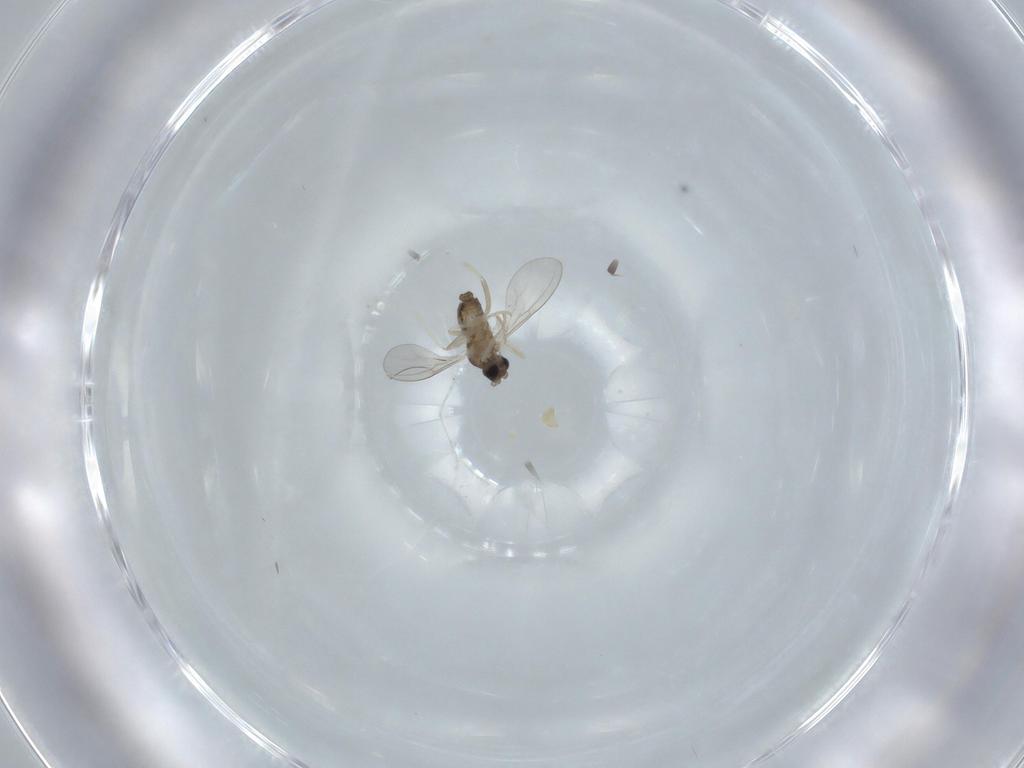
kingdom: Animalia
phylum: Arthropoda
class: Insecta
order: Diptera
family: Cecidomyiidae
